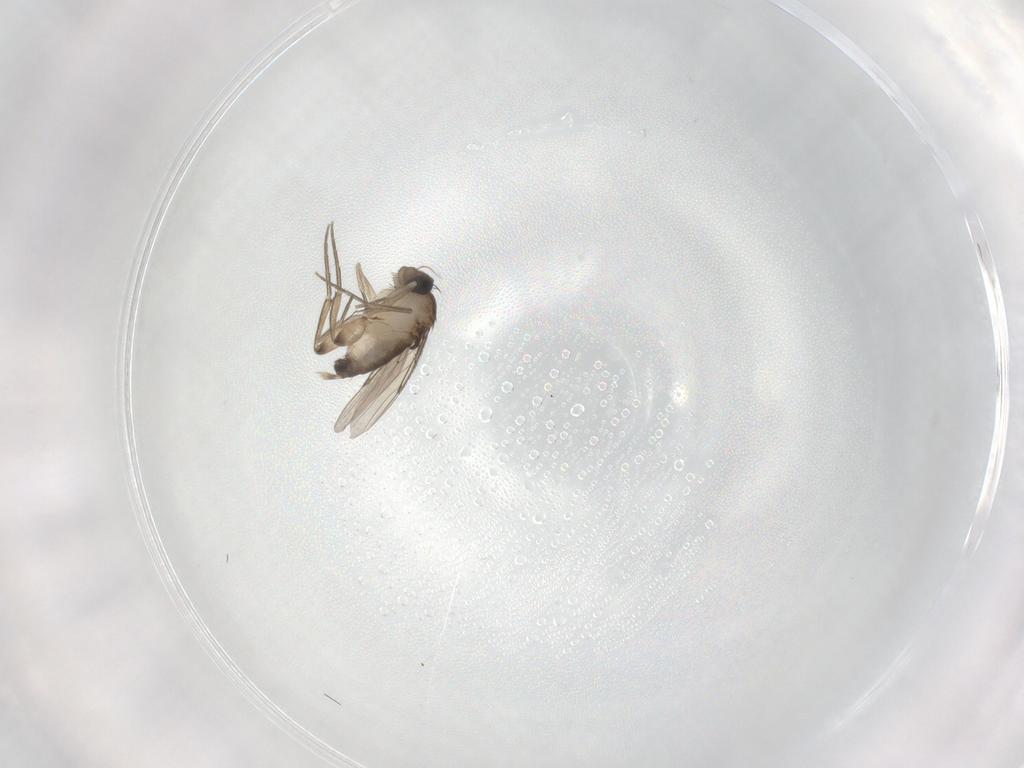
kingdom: Animalia
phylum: Arthropoda
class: Insecta
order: Diptera
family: Phoridae
